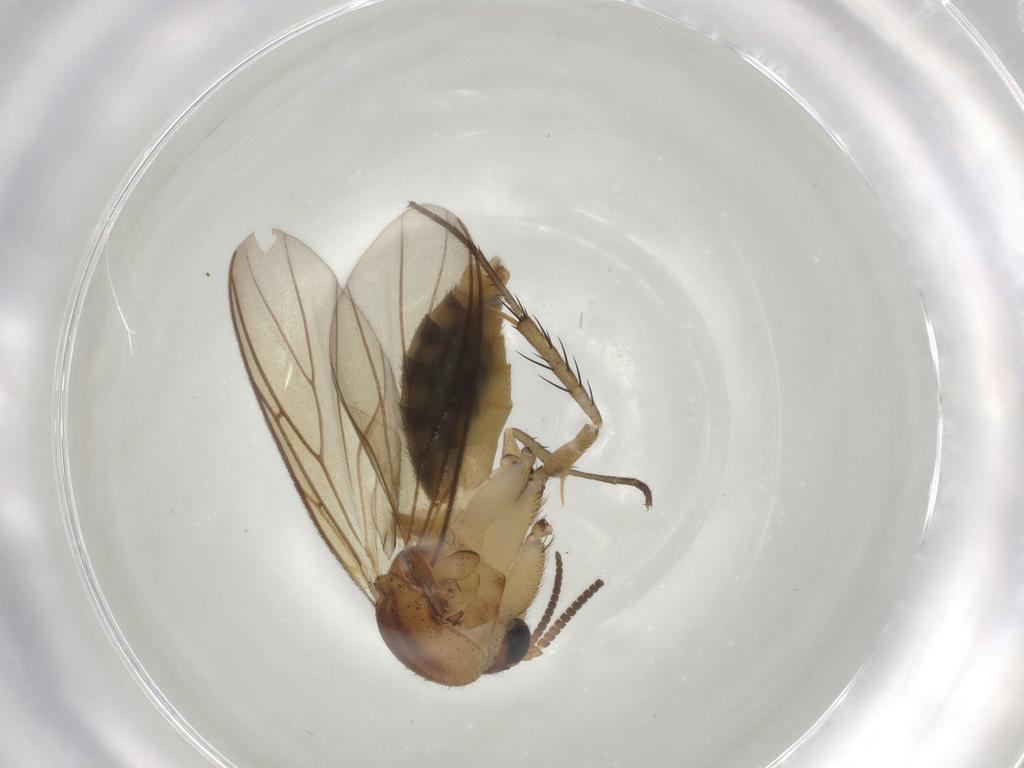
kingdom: Animalia
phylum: Arthropoda
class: Insecta
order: Diptera
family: Mycetophilidae
